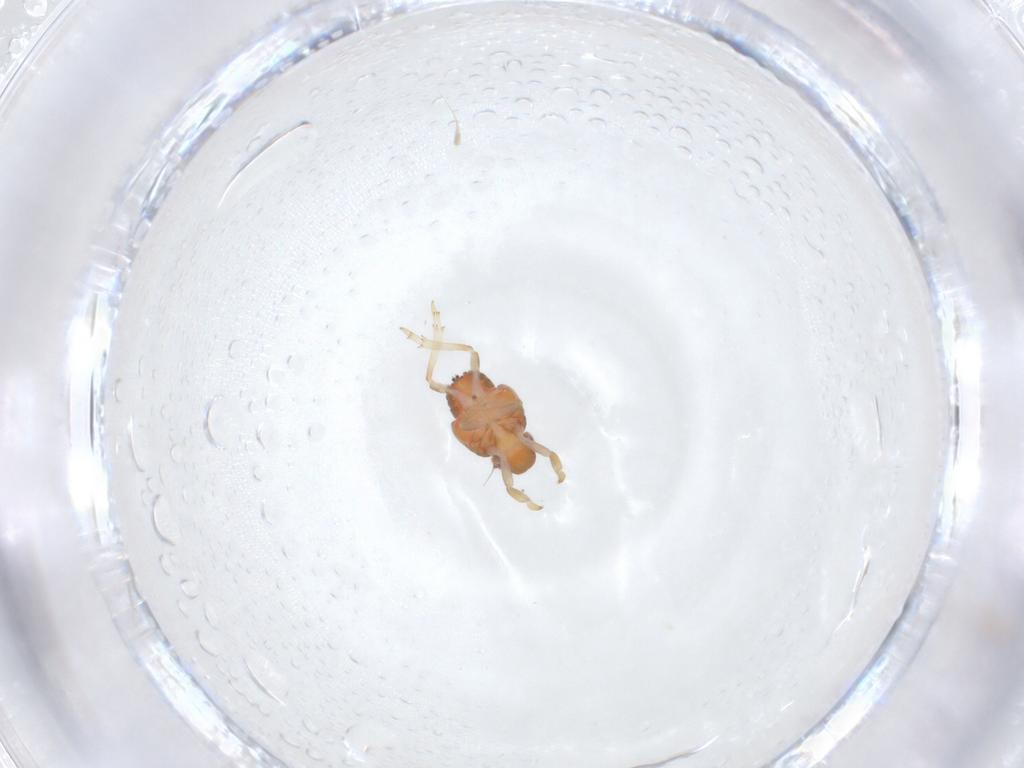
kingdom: Animalia
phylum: Arthropoda
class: Insecta
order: Hemiptera
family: Issidae
